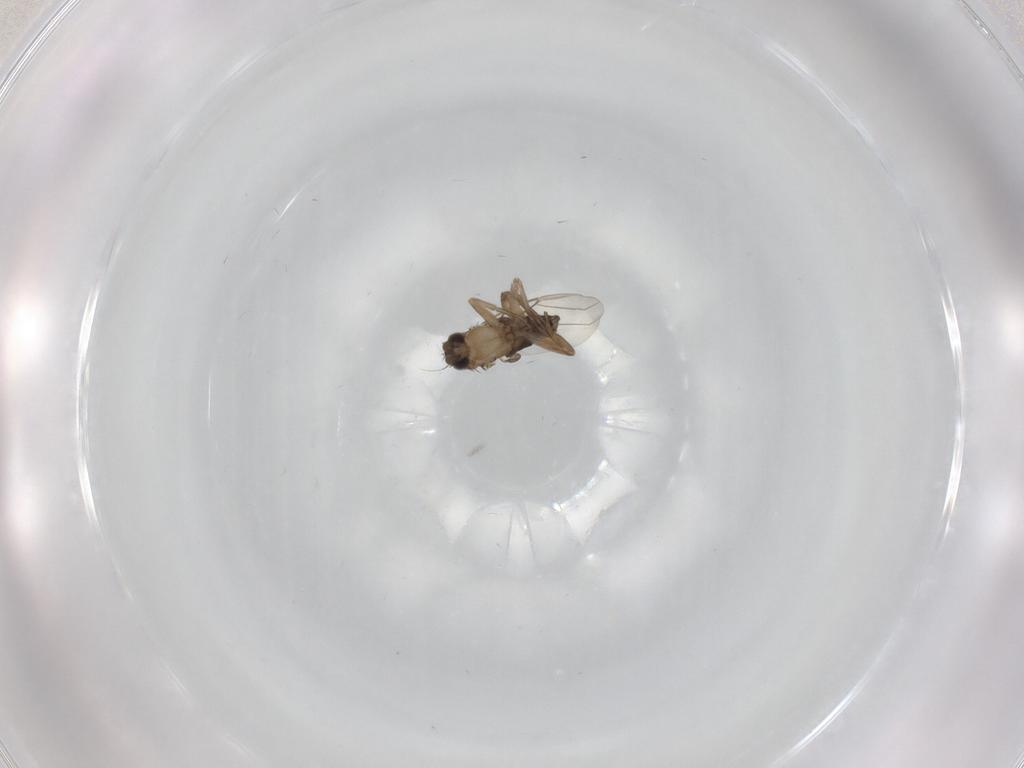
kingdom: Animalia
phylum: Arthropoda
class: Insecta
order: Diptera
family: Phoridae
